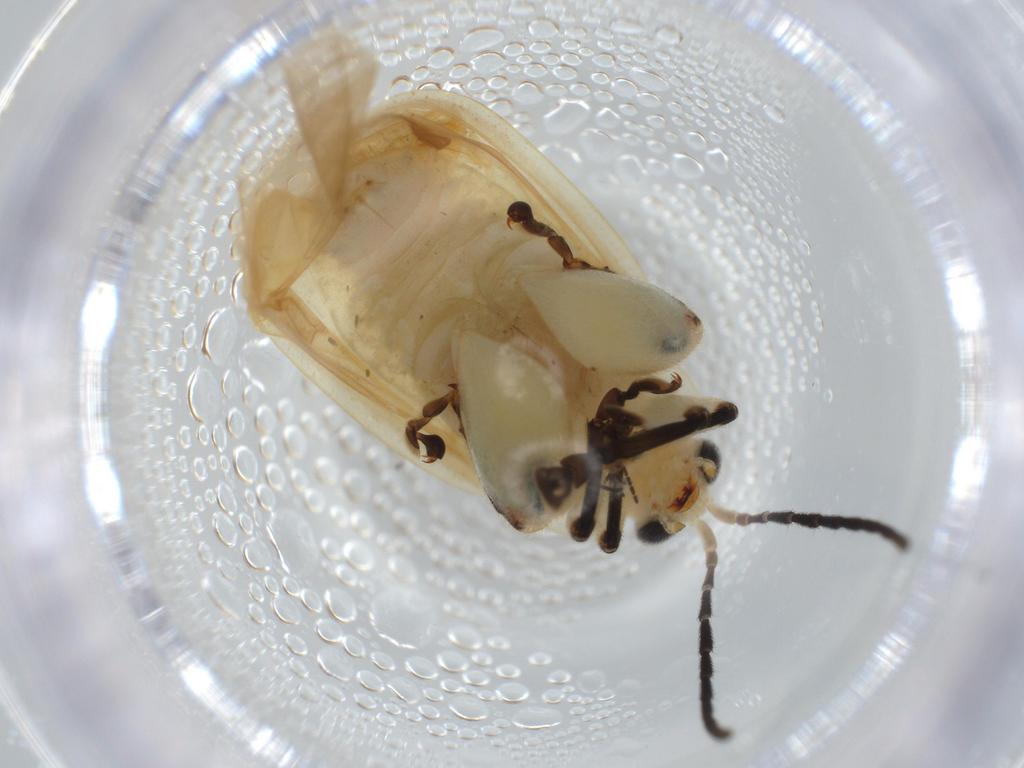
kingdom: Animalia
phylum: Arthropoda
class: Insecta
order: Coleoptera
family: Chrysomelidae
